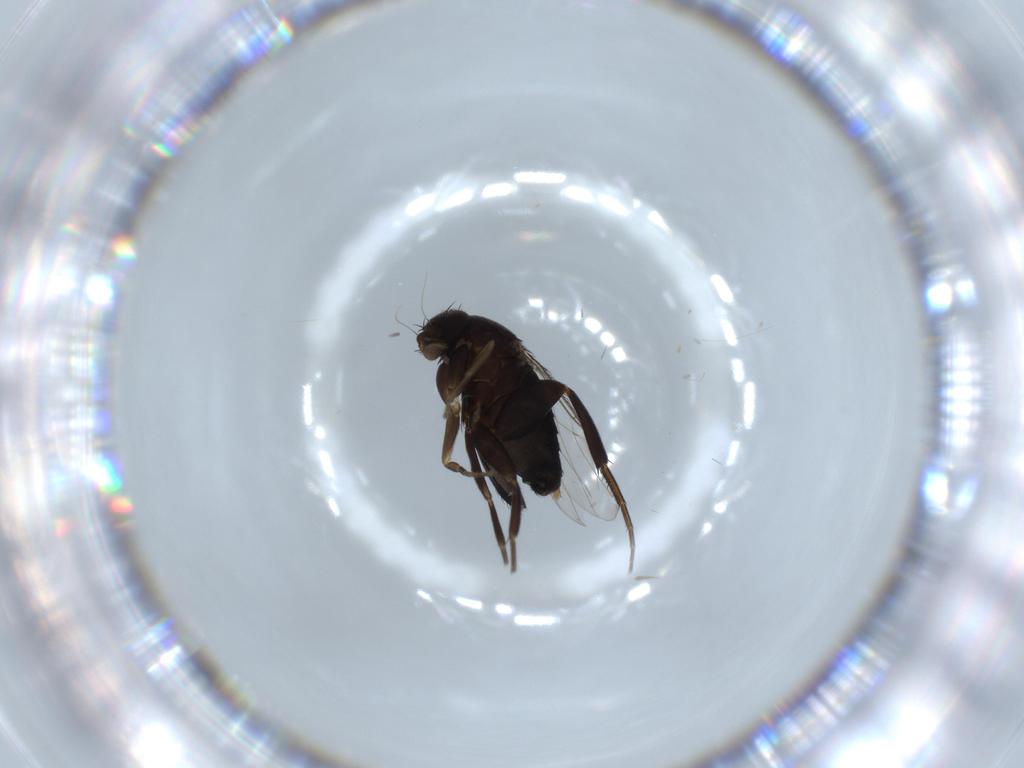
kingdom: Animalia
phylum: Arthropoda
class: Insecta
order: Diptera
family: Phoridae
